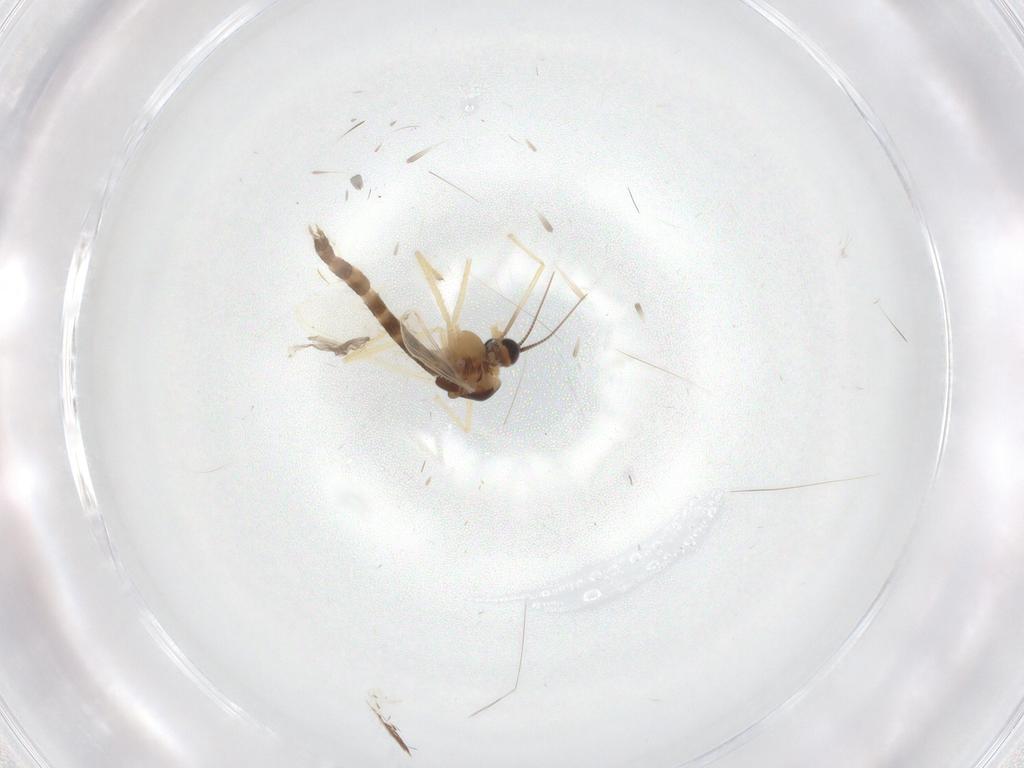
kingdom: Animalia
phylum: Arthropoda
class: Insecta
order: Diptera
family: Chironomidae
